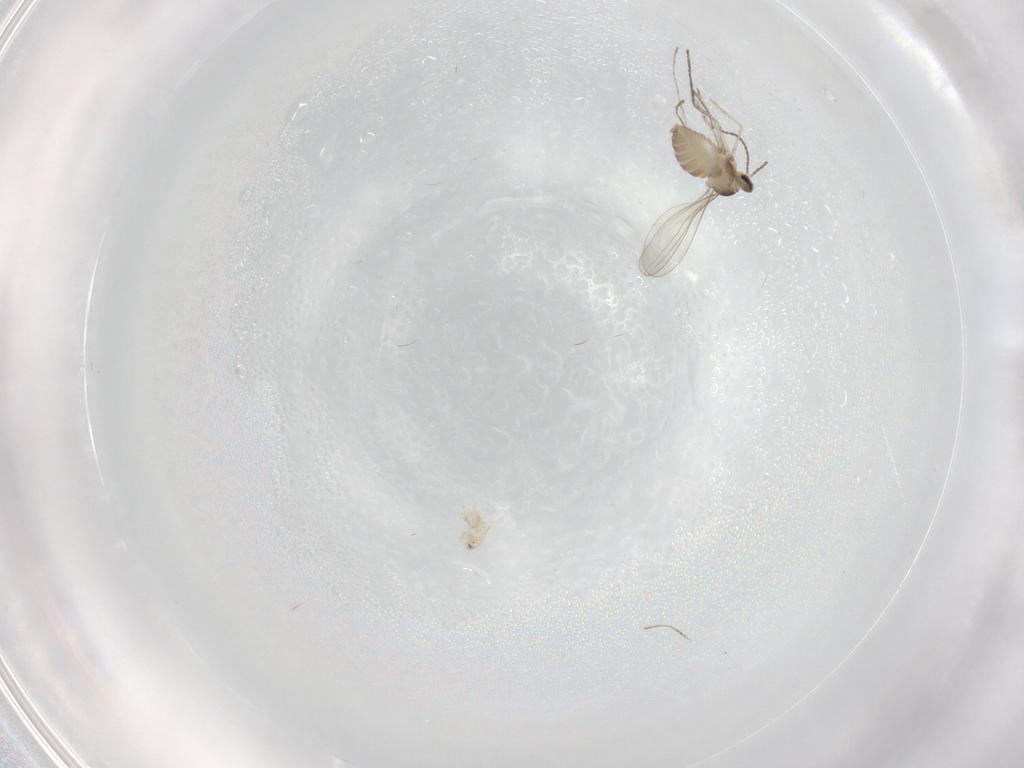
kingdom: Animalia
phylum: Arthropoda
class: Insecta
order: Diptera
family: Cecidomyiidae
